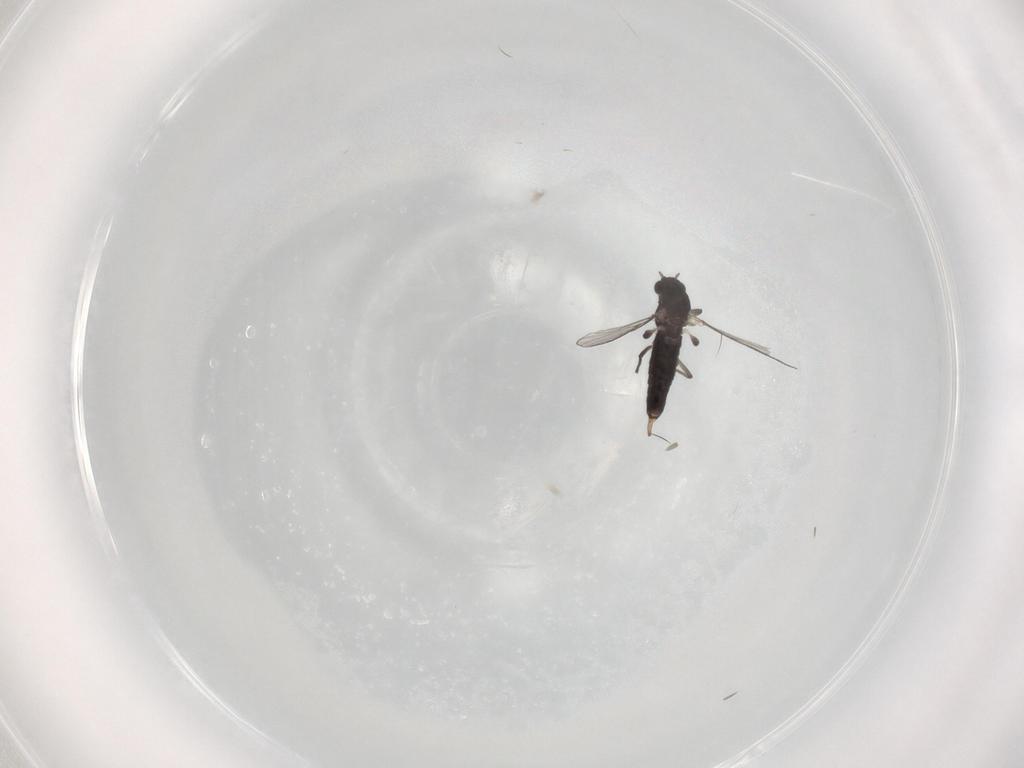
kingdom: Animalia
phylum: Arthropoda
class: Insecta
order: Diptera
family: Chironomidae
